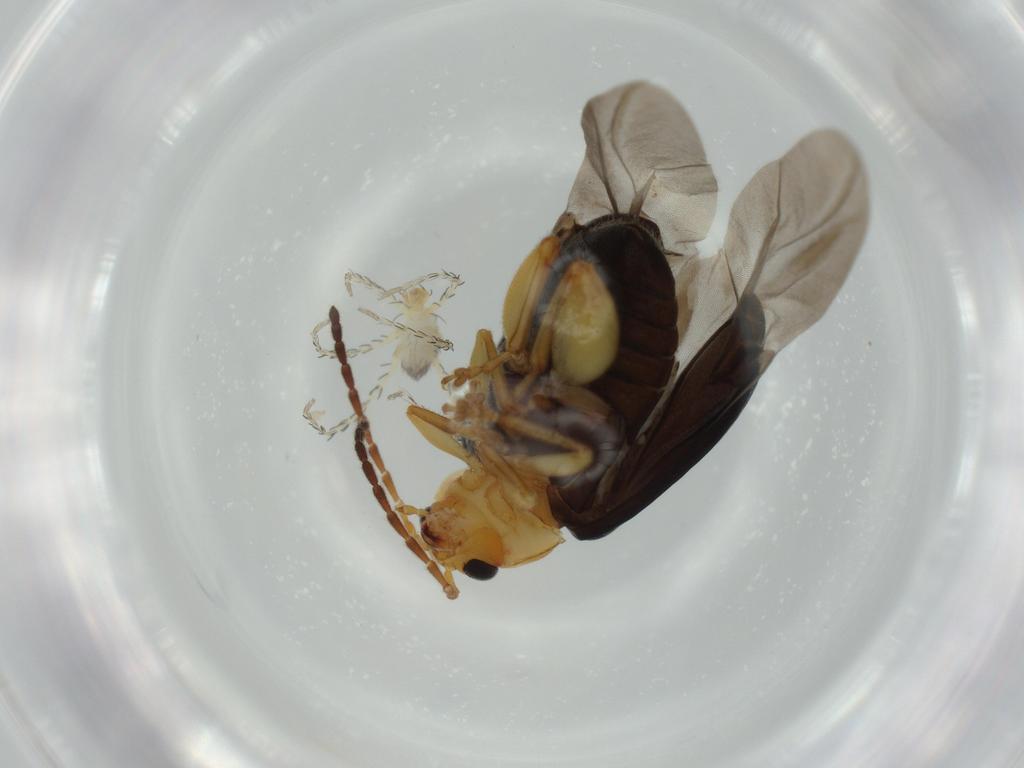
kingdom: Animalia
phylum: Arthropoda
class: Insecta
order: Coleoptera
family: Chrysomelidae
